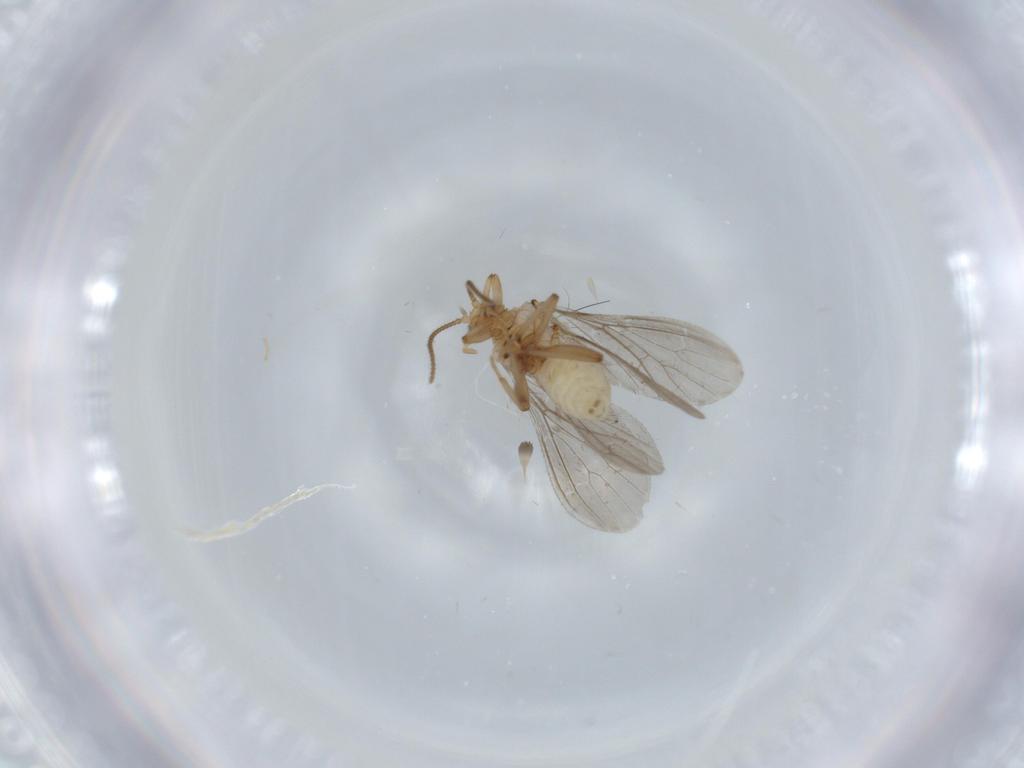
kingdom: Animalia
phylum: Arthropoda
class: Insecta
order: Neuroptera
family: Coniopterygidae
